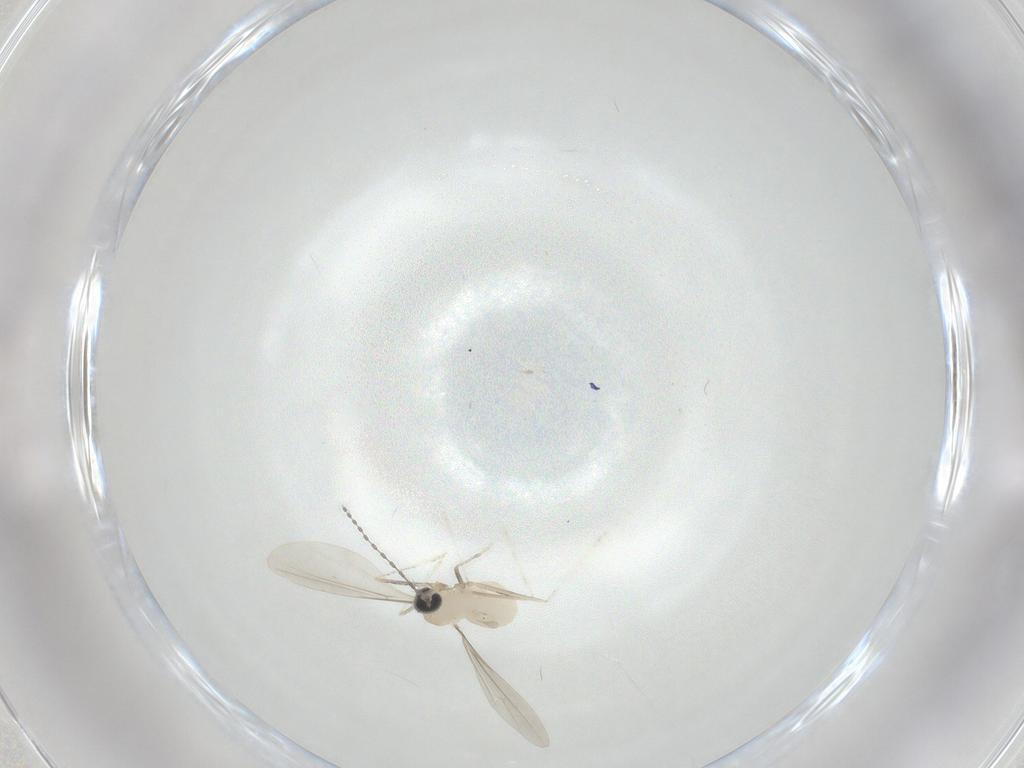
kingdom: Animalia
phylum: Arthropoda
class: Insecta
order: Diptera
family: Cecidomyiidae
